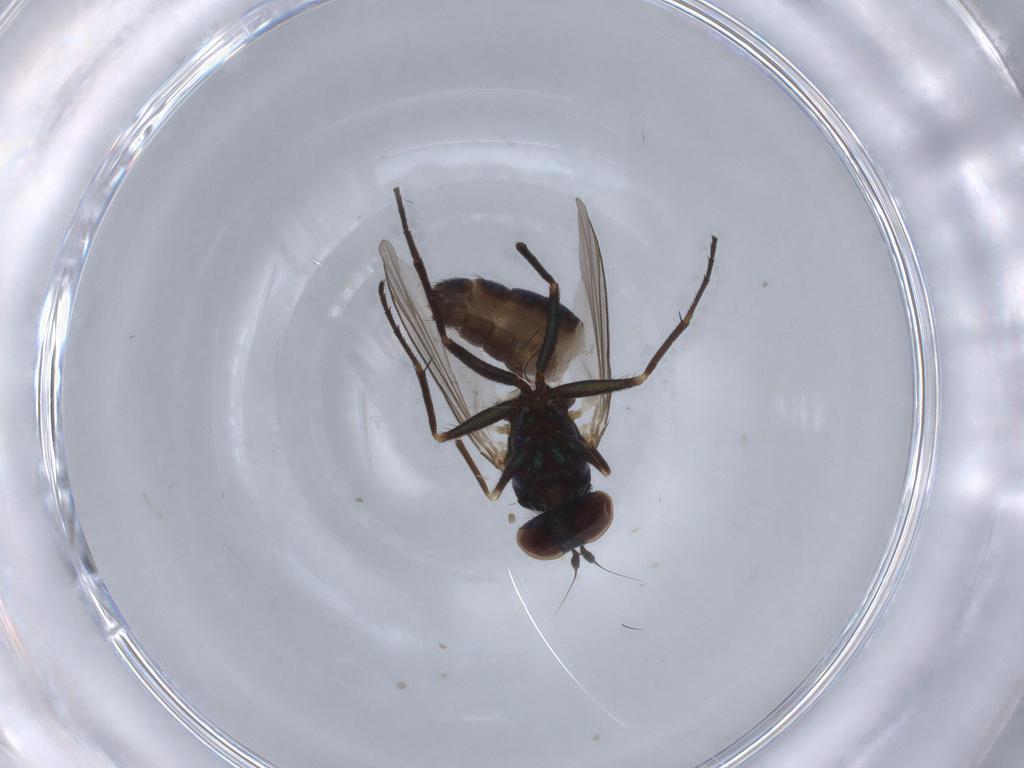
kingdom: Animalia
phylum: Arthropoda
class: Insecta
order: Diptera
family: Dolichopodidae
